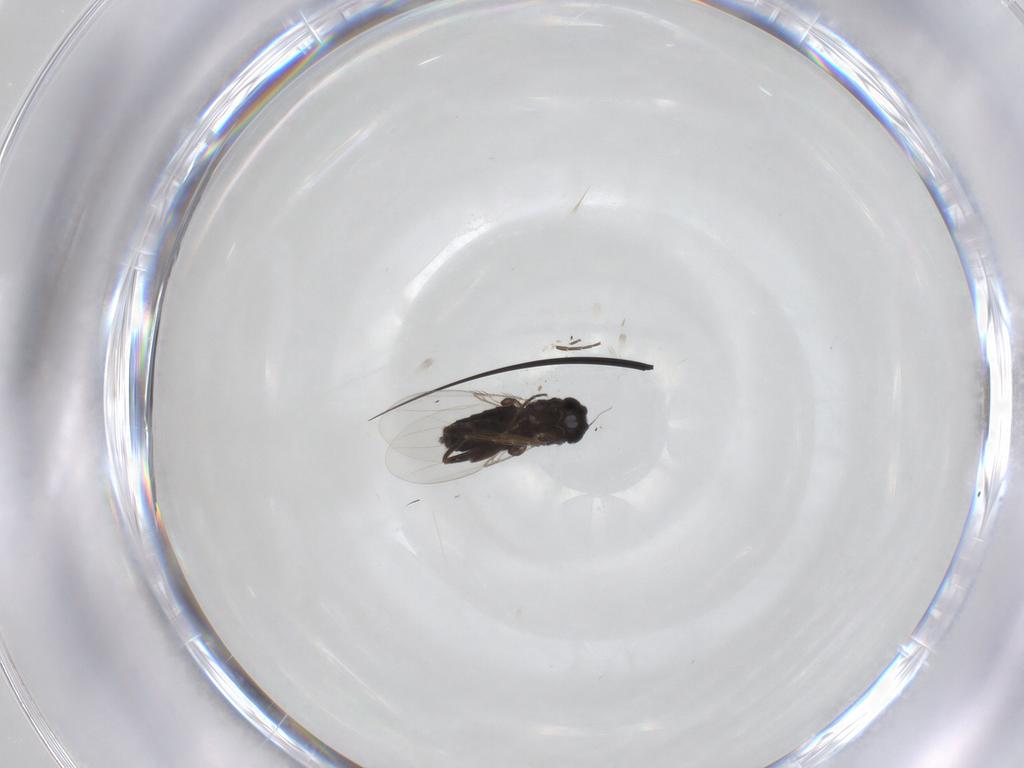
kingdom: Animalia
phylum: Arthropoda
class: Insecta
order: Diptera
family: Phoridae
